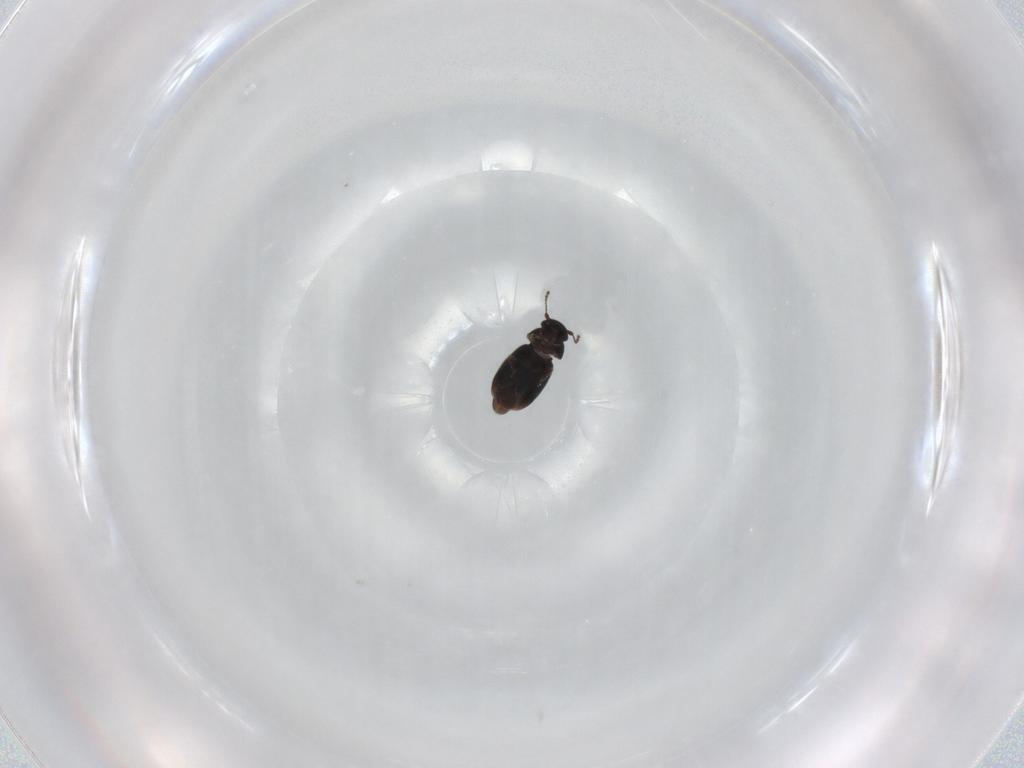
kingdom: Animalia
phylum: Arthropoda
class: Insecta
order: Coleoptera
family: Ptiliidae
